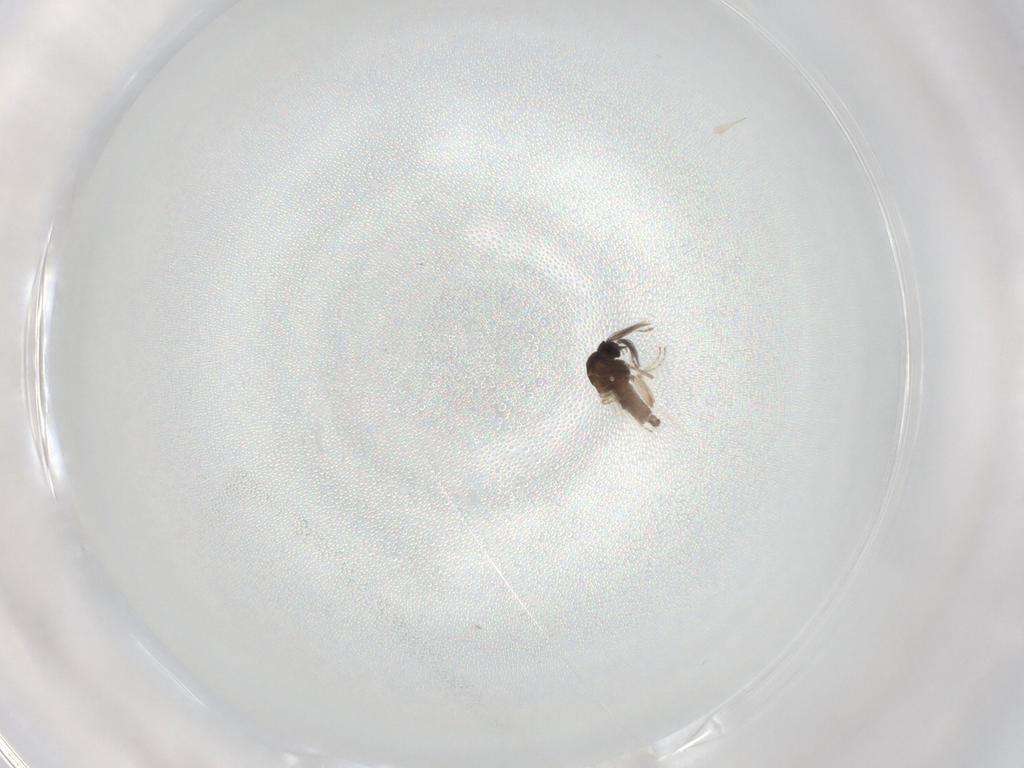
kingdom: Animalia
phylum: Arthropoda
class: Insecta
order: Diptera
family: Ceratopogonidae
